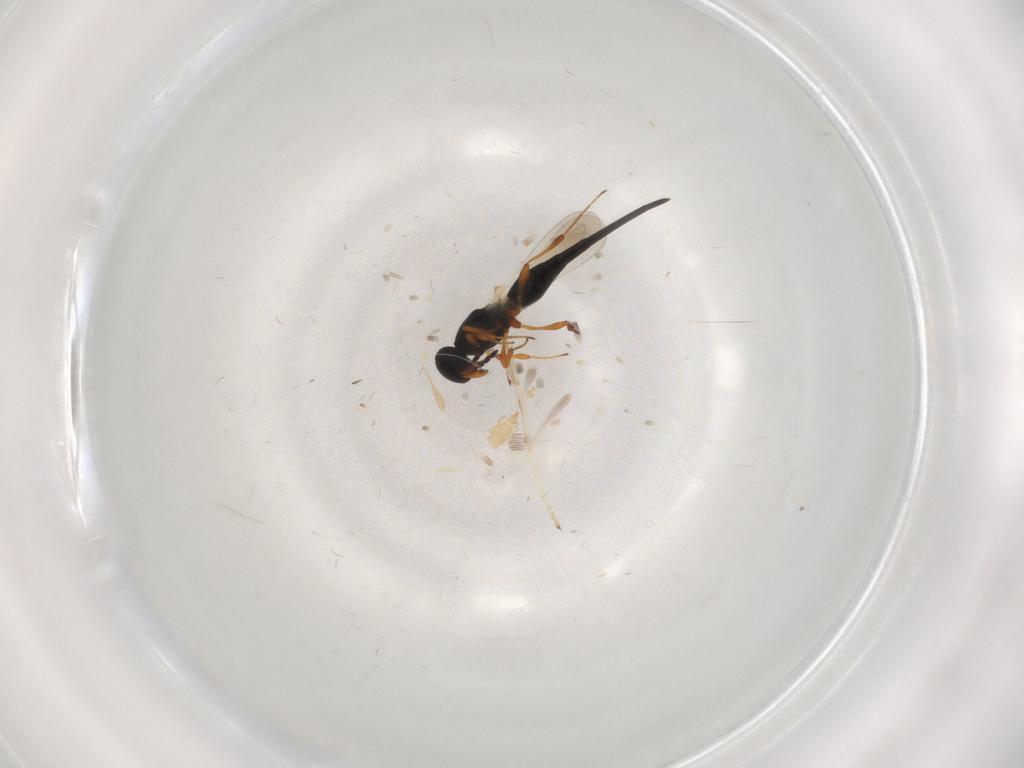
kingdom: Animalia
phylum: Arthropoda
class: Insecta
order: Hymenoptera
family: Platygastridae
